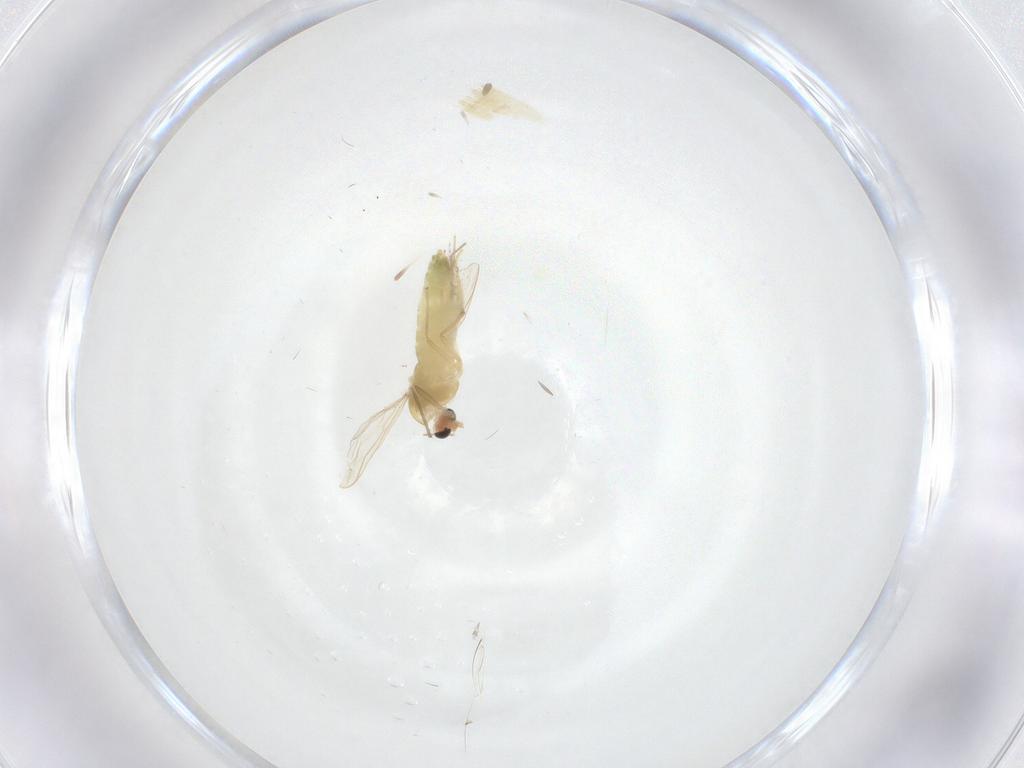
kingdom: Animalia
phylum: Arthropoda
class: Insecta
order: Diptera
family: Chironomidae
